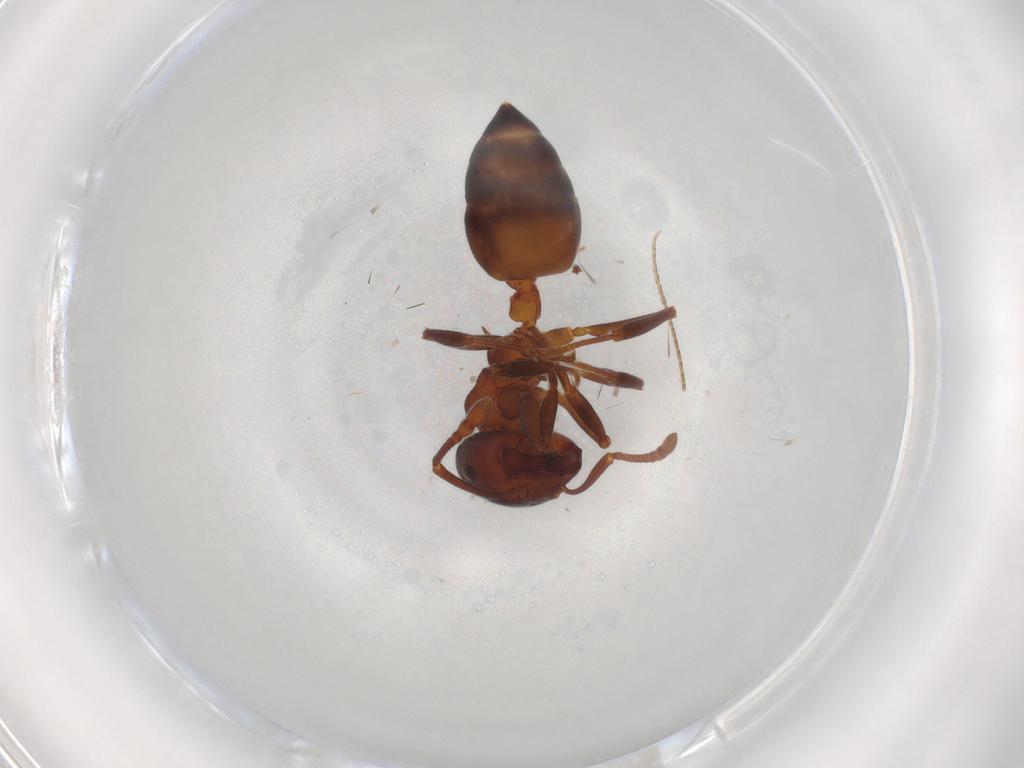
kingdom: Animalia
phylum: Arthropoda
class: Insecta
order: Hymenoptera
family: Formicidae
